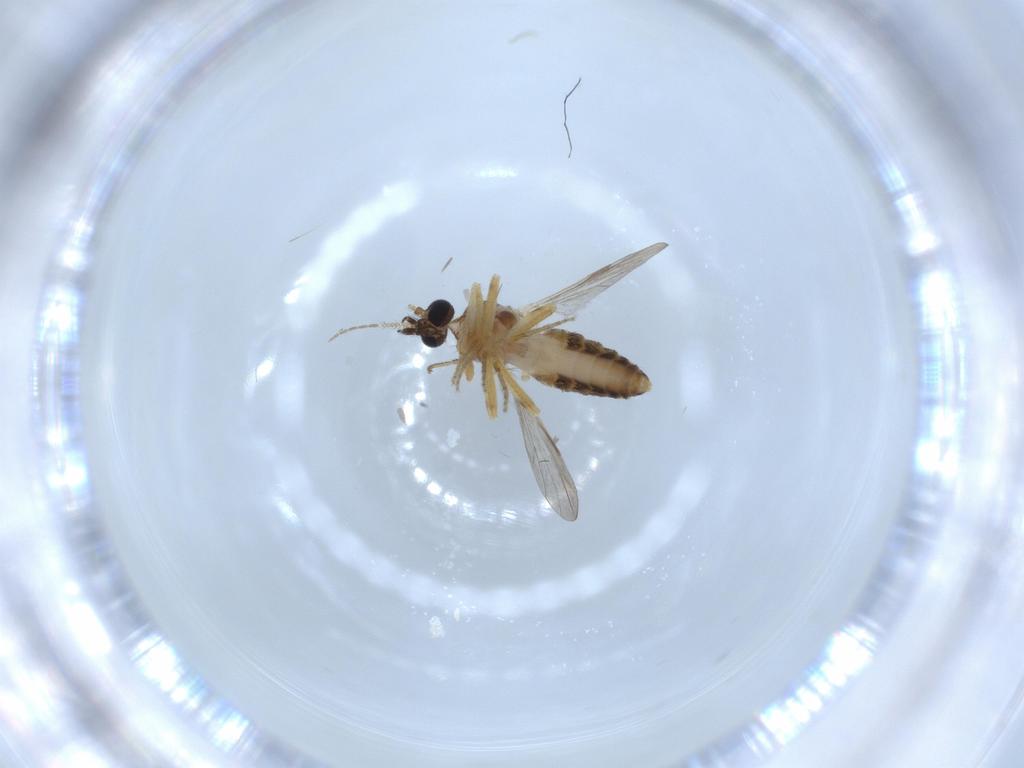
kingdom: Animalia
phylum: Arthropoda
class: Insecta
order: Diptera
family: Ceratopogonidae
